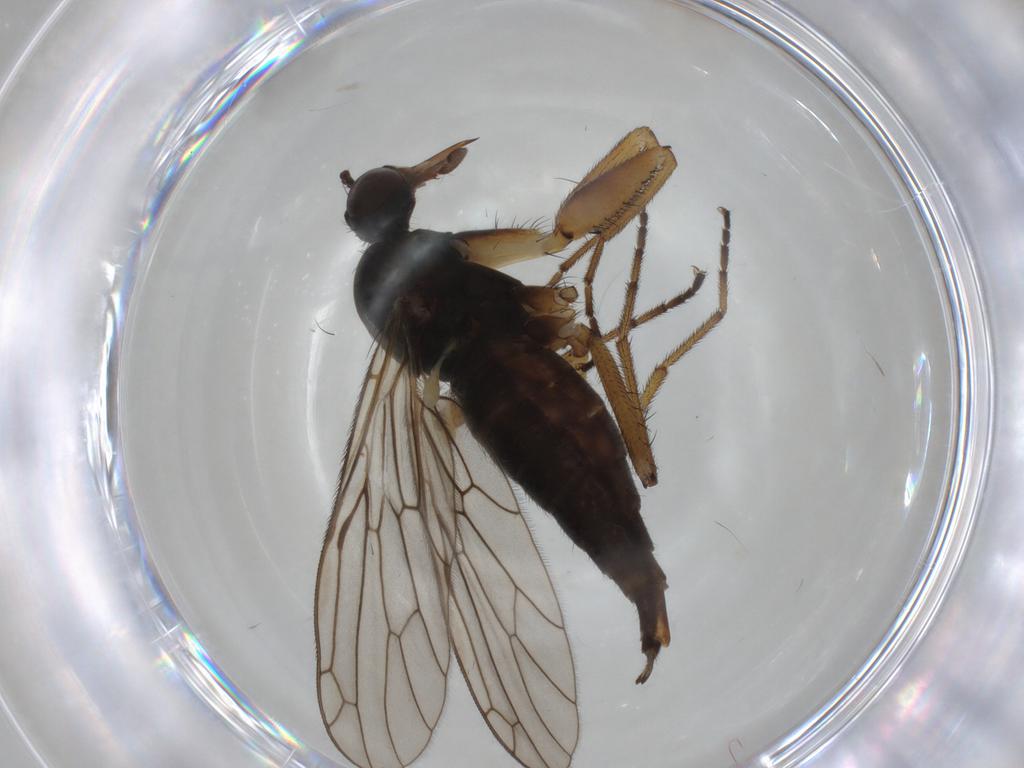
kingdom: Animalia
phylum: Arthropoda
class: Insecta
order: Diptera
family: Empididae
